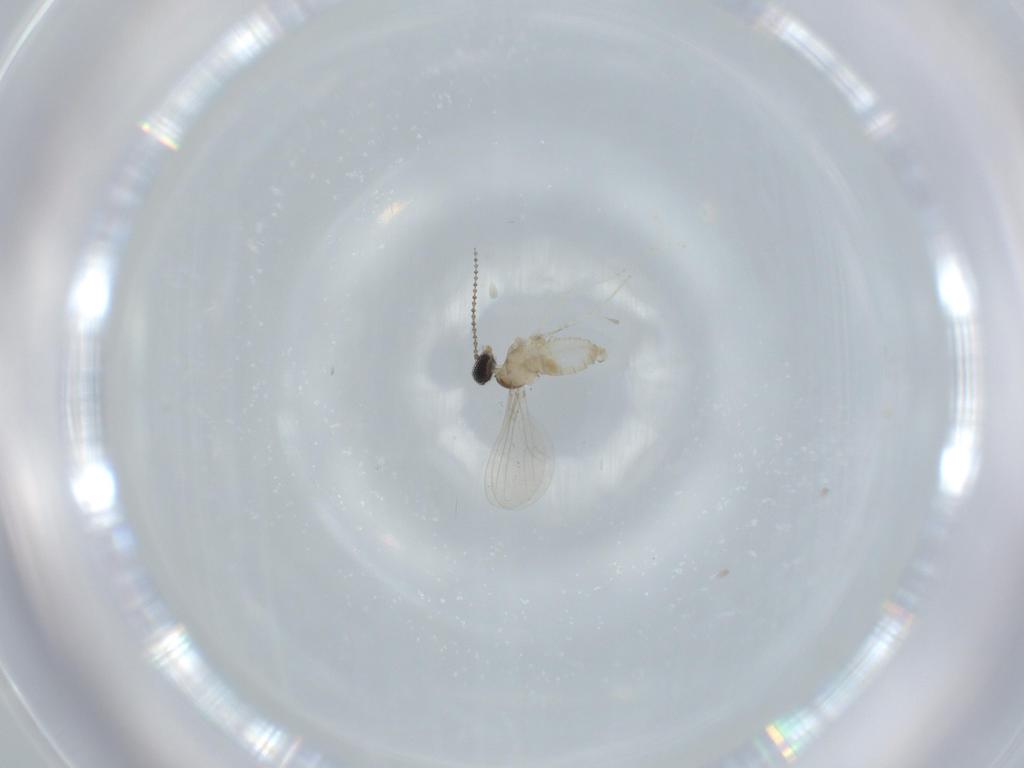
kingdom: Animalia
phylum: Arthropoda
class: Insecta
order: Diptera
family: Cecidomyiidae
